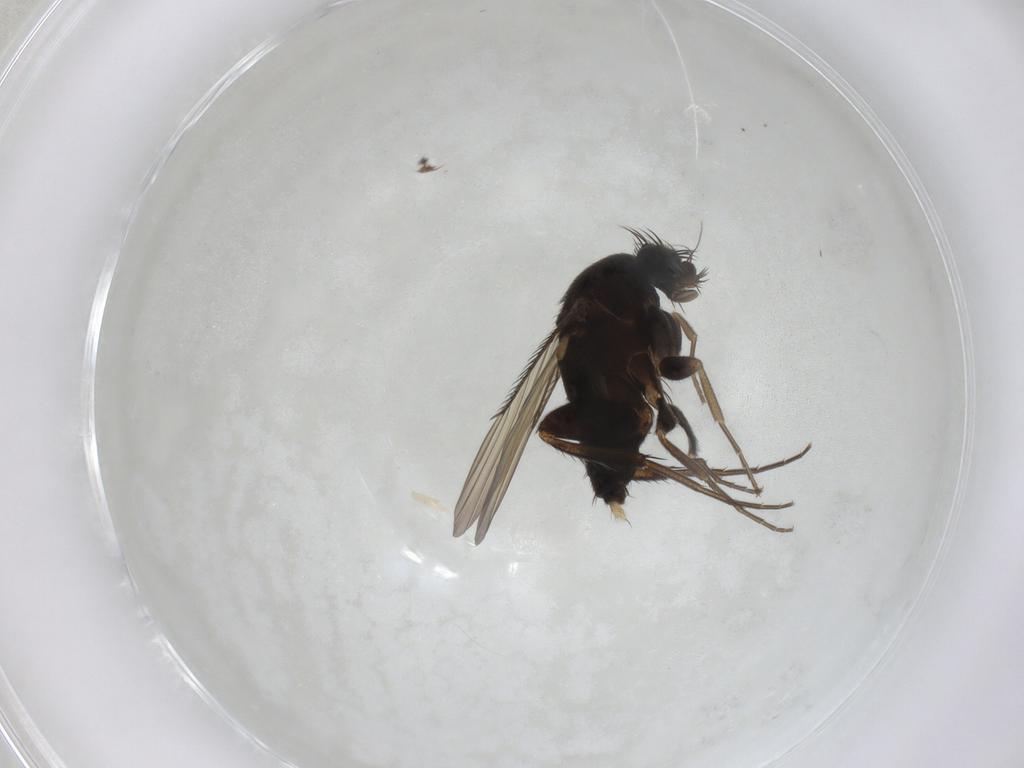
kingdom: Animalia
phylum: Arthropoda
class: Insecta
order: Diptera
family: Phoridae
